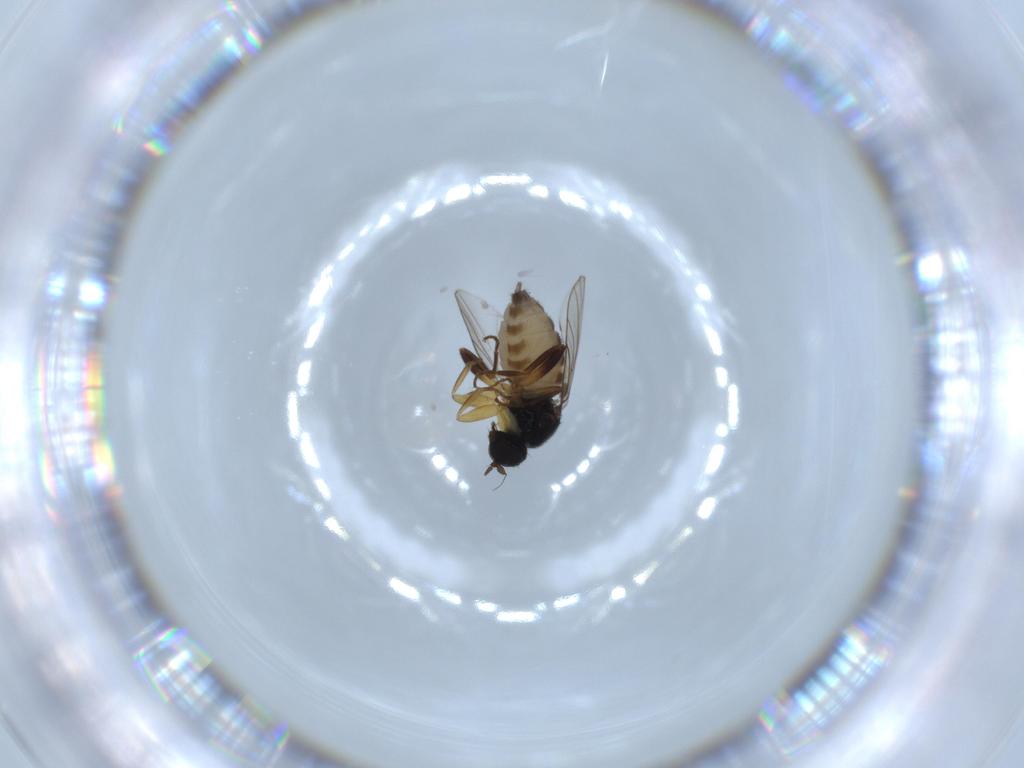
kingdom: Animalia
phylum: Arthropoda
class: Insecta
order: Diptera
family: Hybotidae
